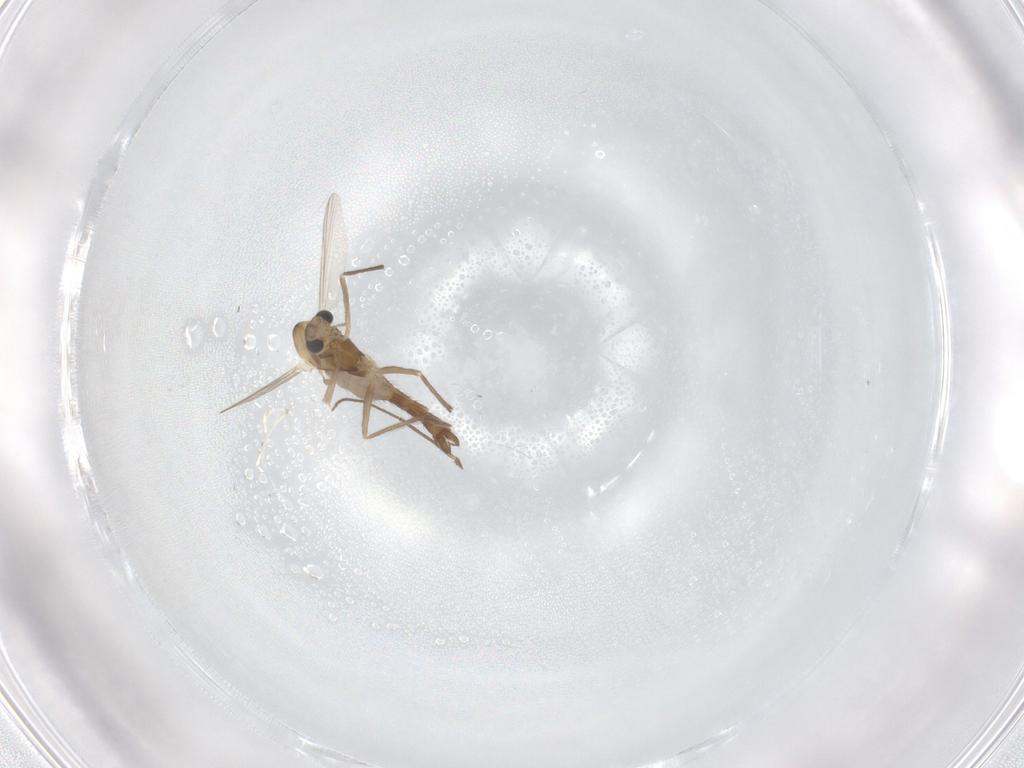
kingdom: Animalia
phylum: Arthropoda
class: Insecta
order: Diptera
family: Chironomidae
